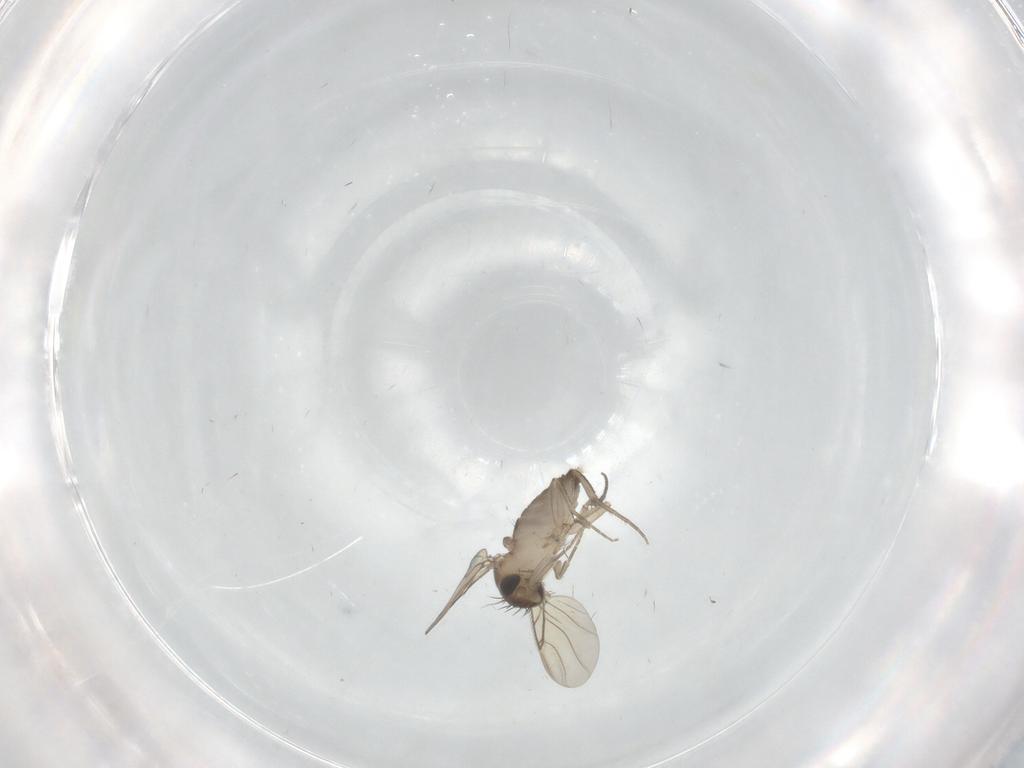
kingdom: Animalia
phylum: Arthropoda
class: Insecta
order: Diptera
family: Phoridae
